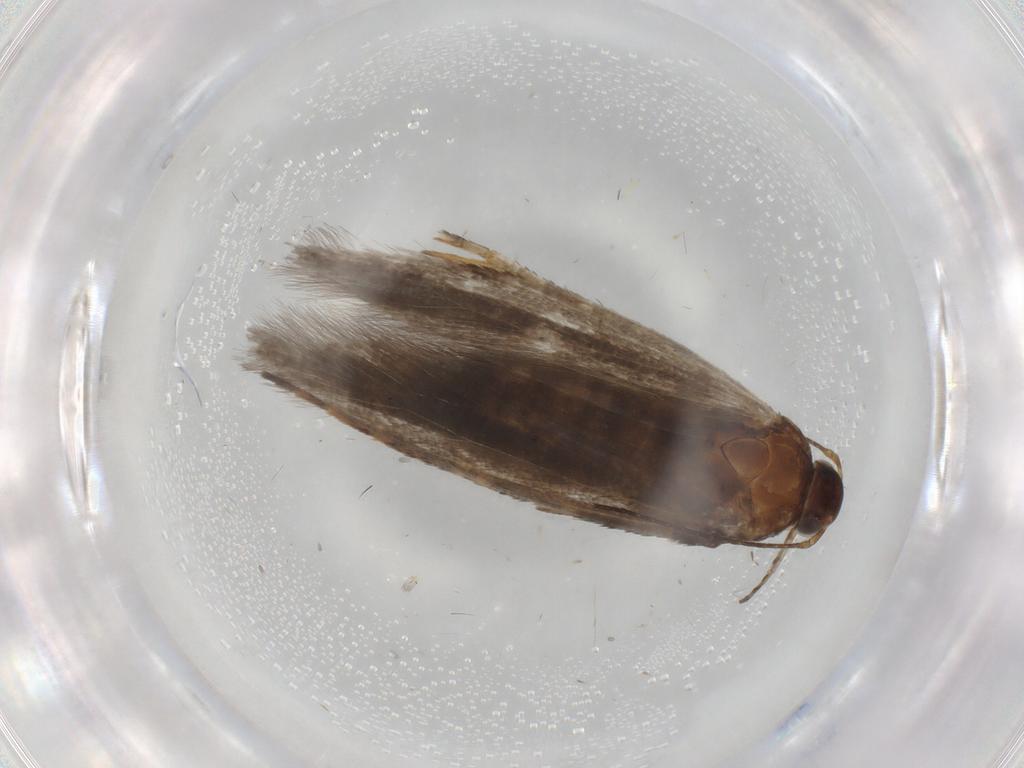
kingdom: Animalia
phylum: Arthropoda
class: Insecta
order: Lepidoptera
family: Gelechiidae
